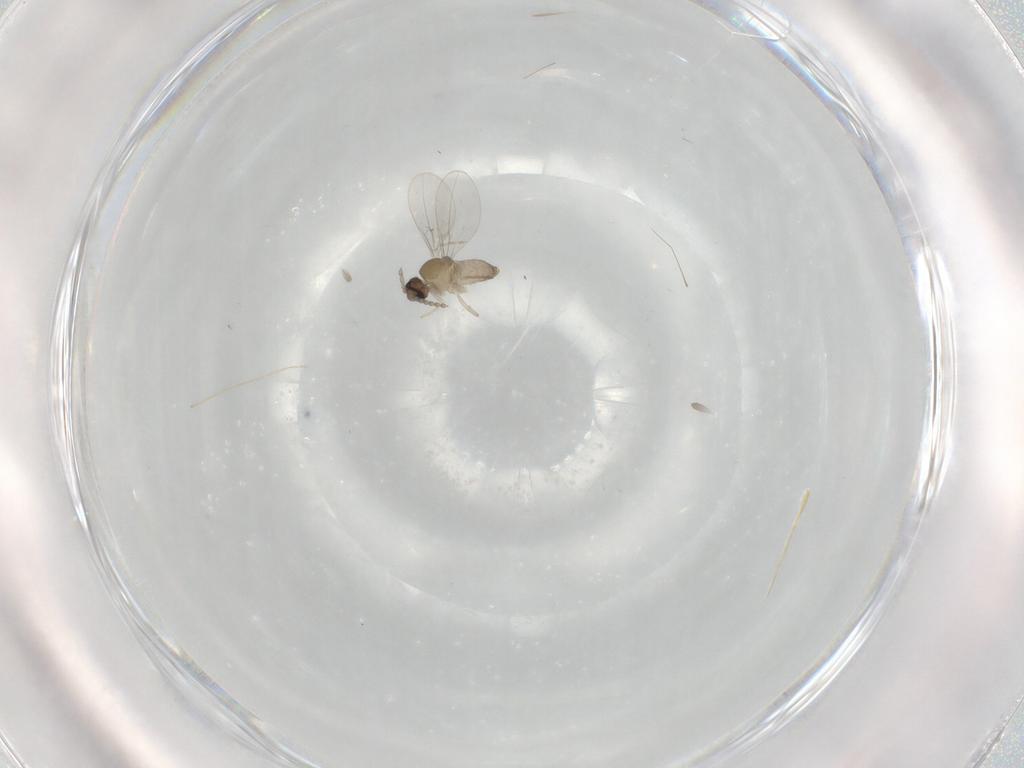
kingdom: Animalia
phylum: Arthropoda
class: Insecta
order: Diptera
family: Cecidomyiidae
